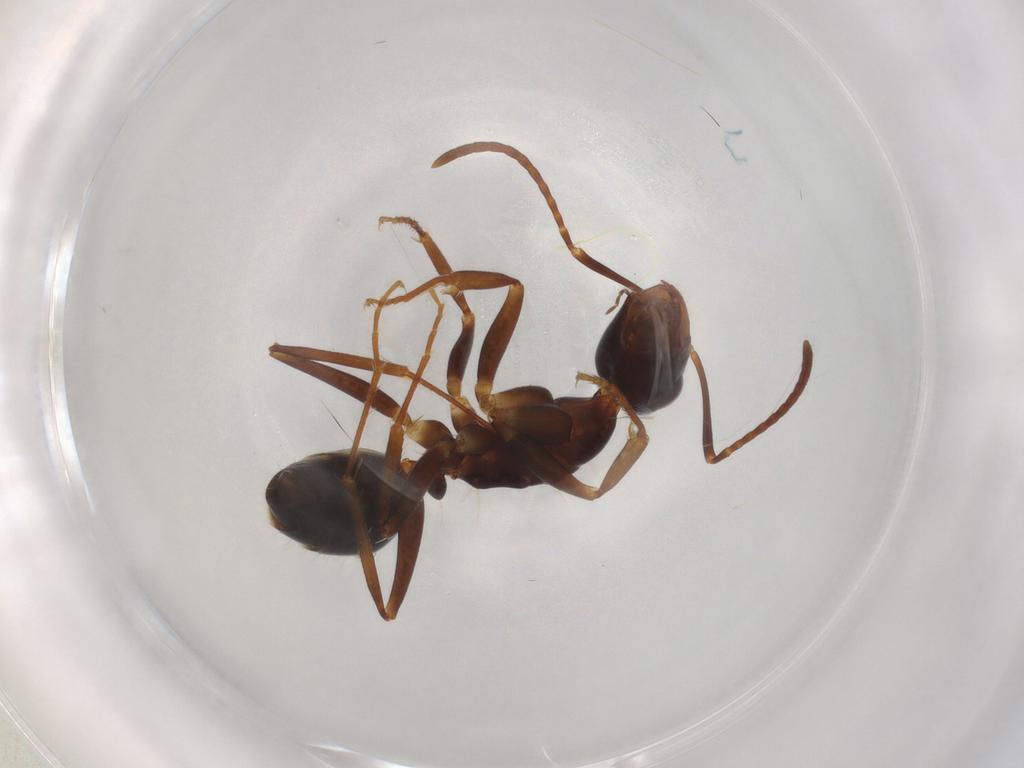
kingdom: Animalia
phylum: Arthropoda
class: Insecta
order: Hymenoptera
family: Formicidae
